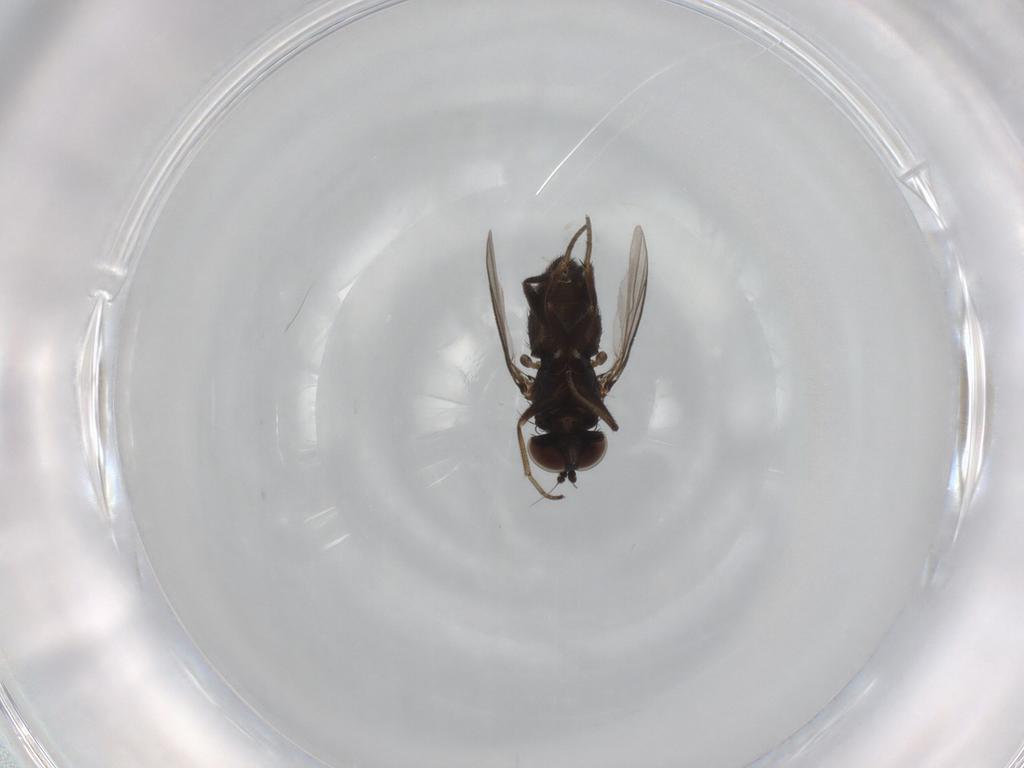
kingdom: Animalia
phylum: Arthropoda
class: Insecta
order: Diptera
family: Dolichopodidae
